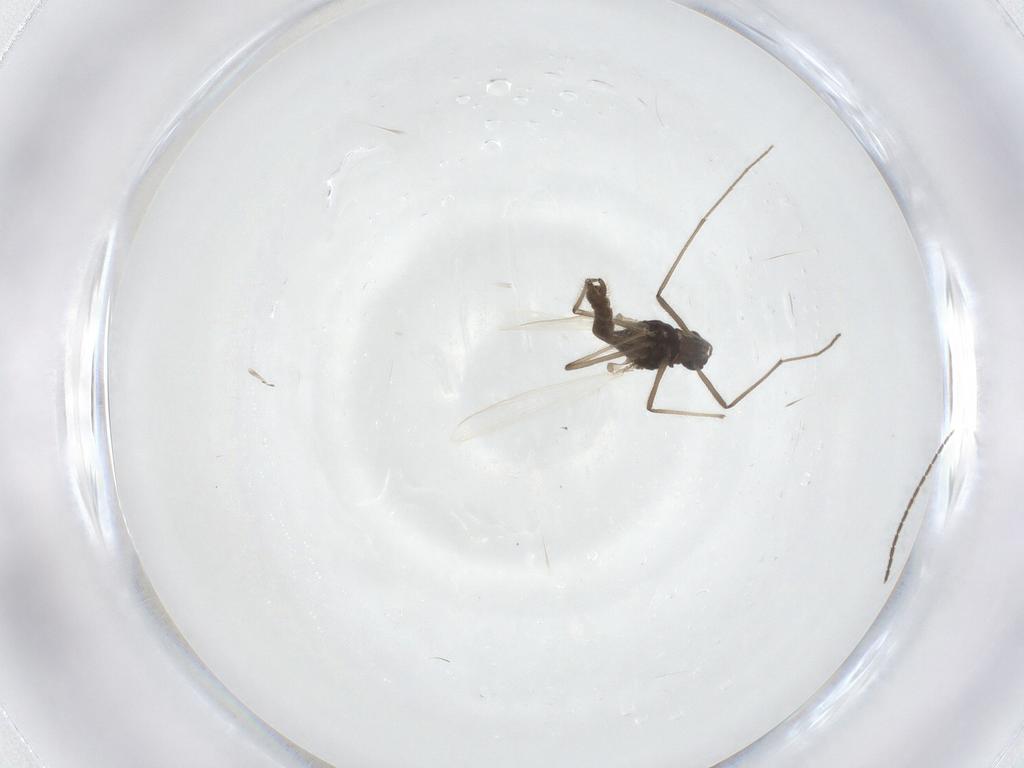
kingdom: Animalia
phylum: Arthropoda
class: Insecta
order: Diptera
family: Chironomidae
